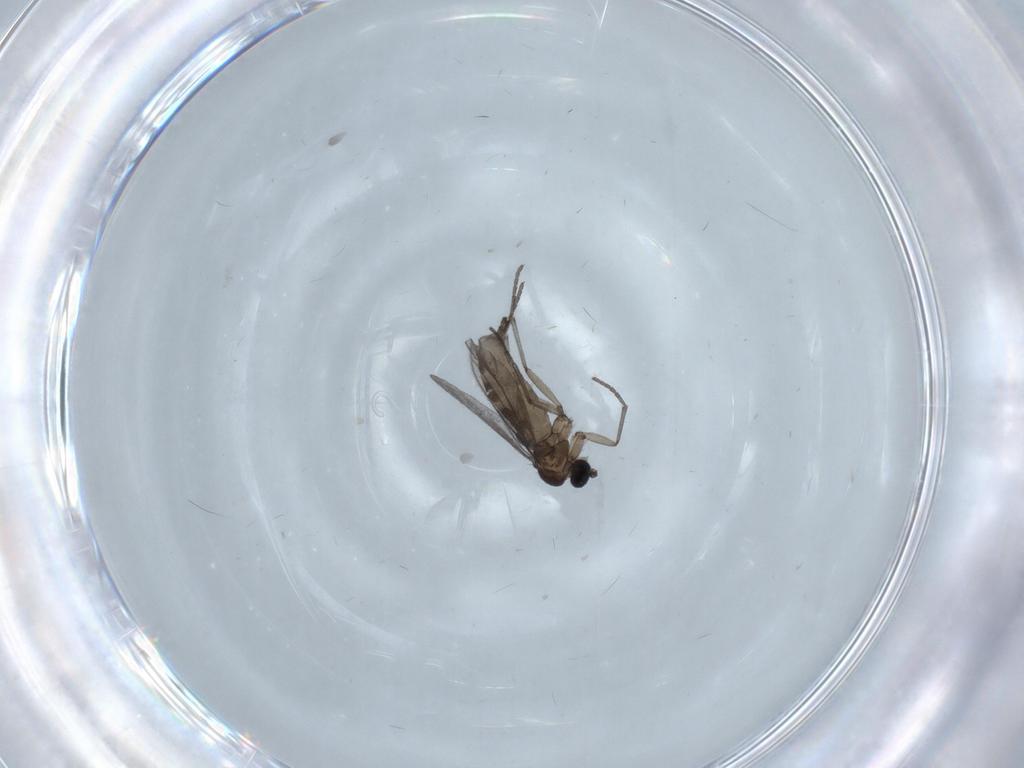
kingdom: Animalia
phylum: Arthropoda
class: Insecta
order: Diptera
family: Cecidomyiidae
